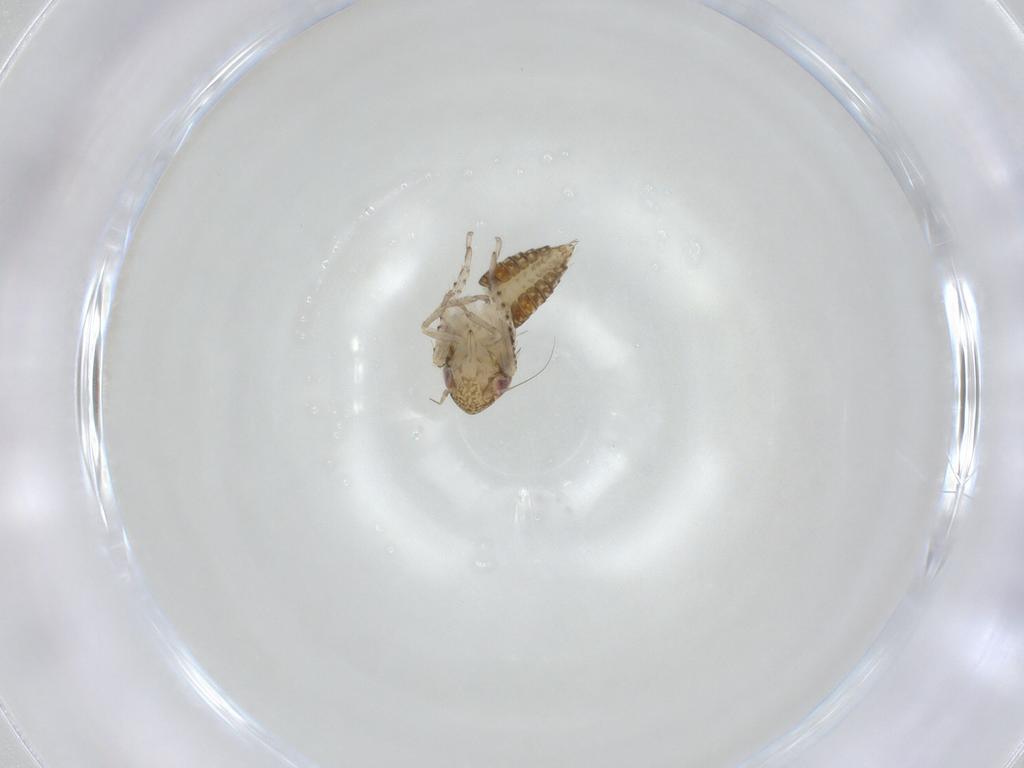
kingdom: Animalia
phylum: Arthropoda
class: Insecta
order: Hemiptera
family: Cicadellidae
